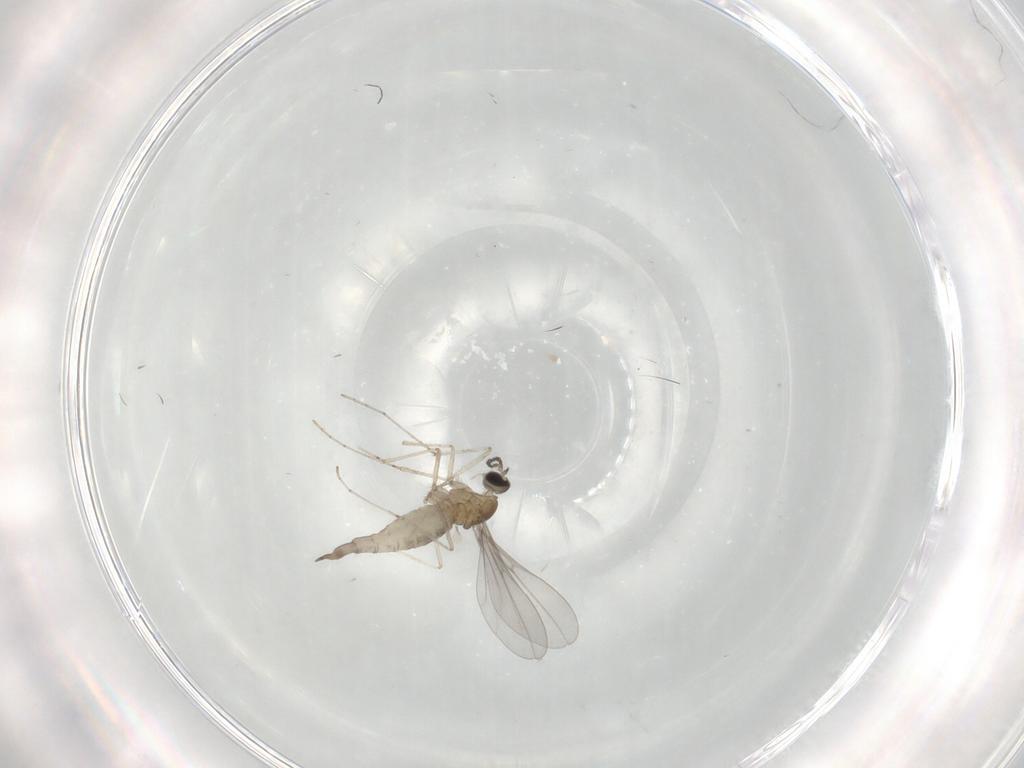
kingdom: Animalia
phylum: Arthropoda
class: Insecta
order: Diptera
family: Cecidomyiidae
